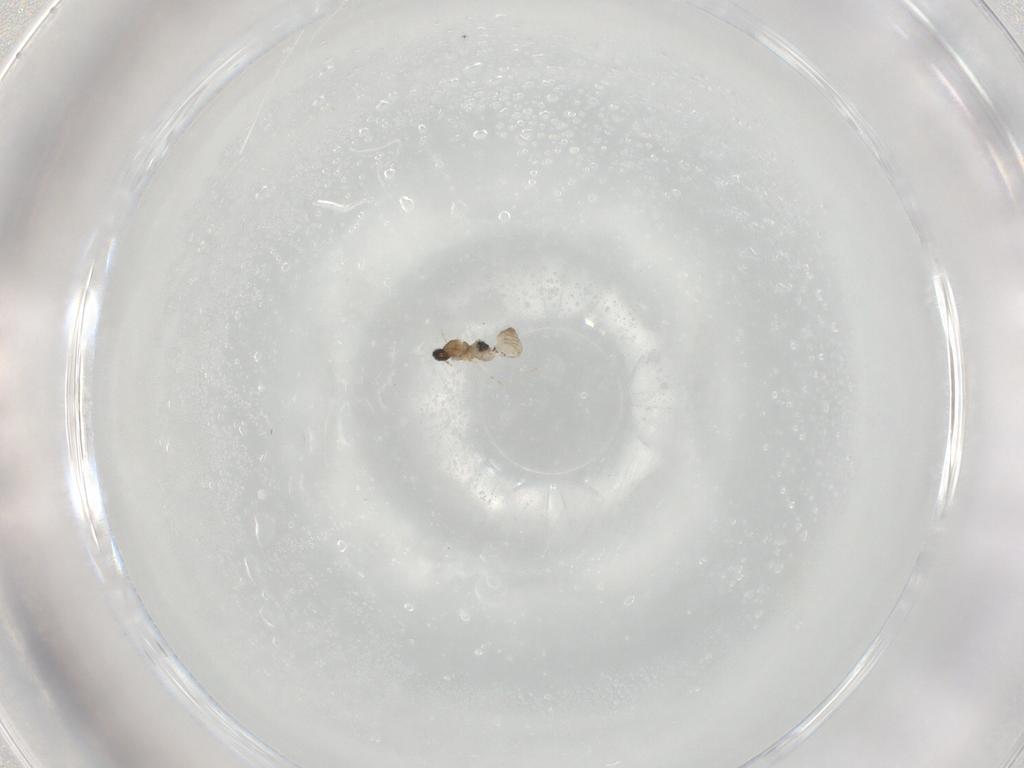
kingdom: Animalia
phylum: Arthropoda
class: Insecta
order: Diptera
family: Cecidomyiidae
